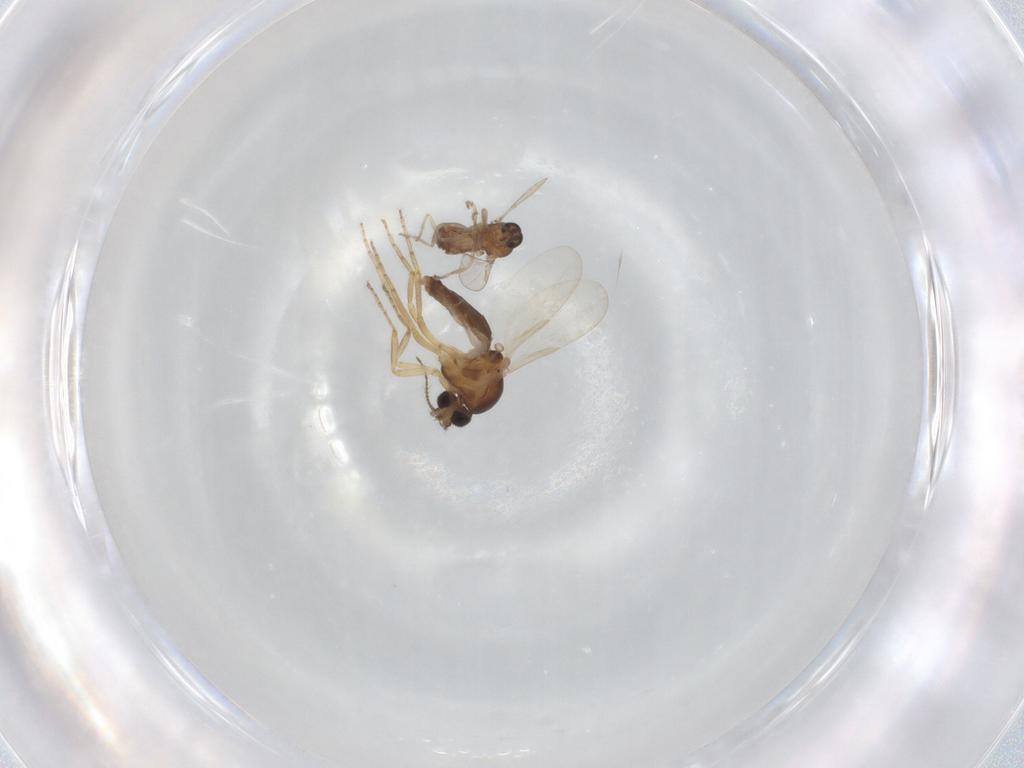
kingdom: Animalia
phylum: Arthropoda
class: Insecta
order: Diptera
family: Ceratopogonidae
